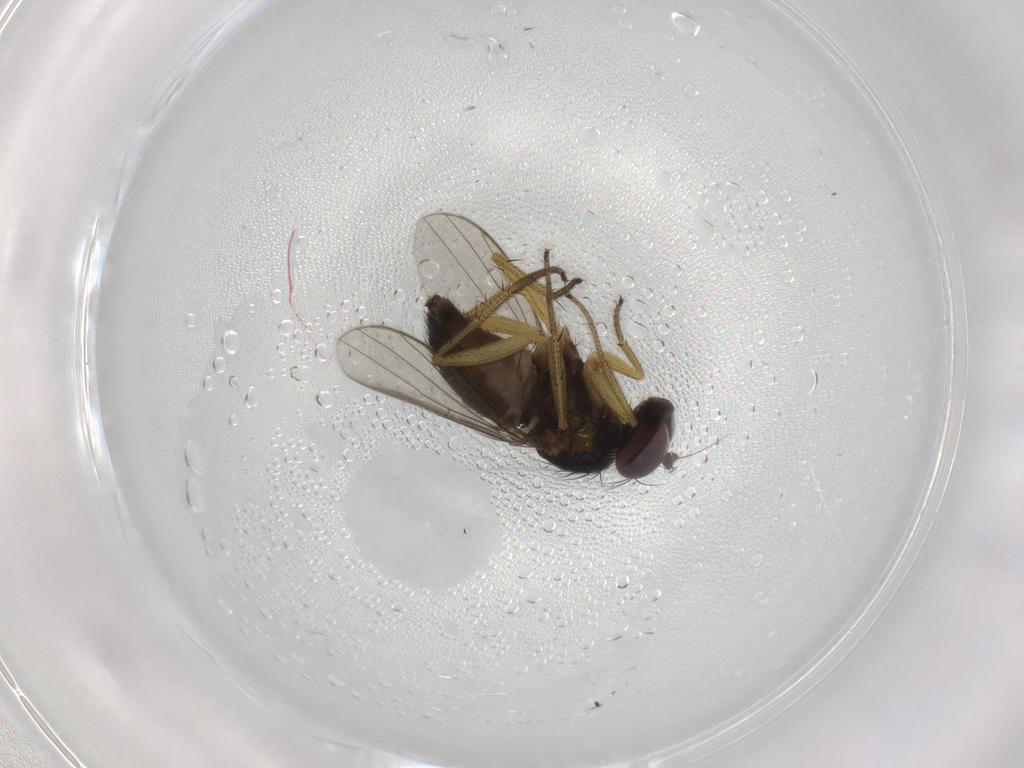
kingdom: Animalia
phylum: Arthropoda
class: Insecta
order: Diptera
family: Dolichopodidae
